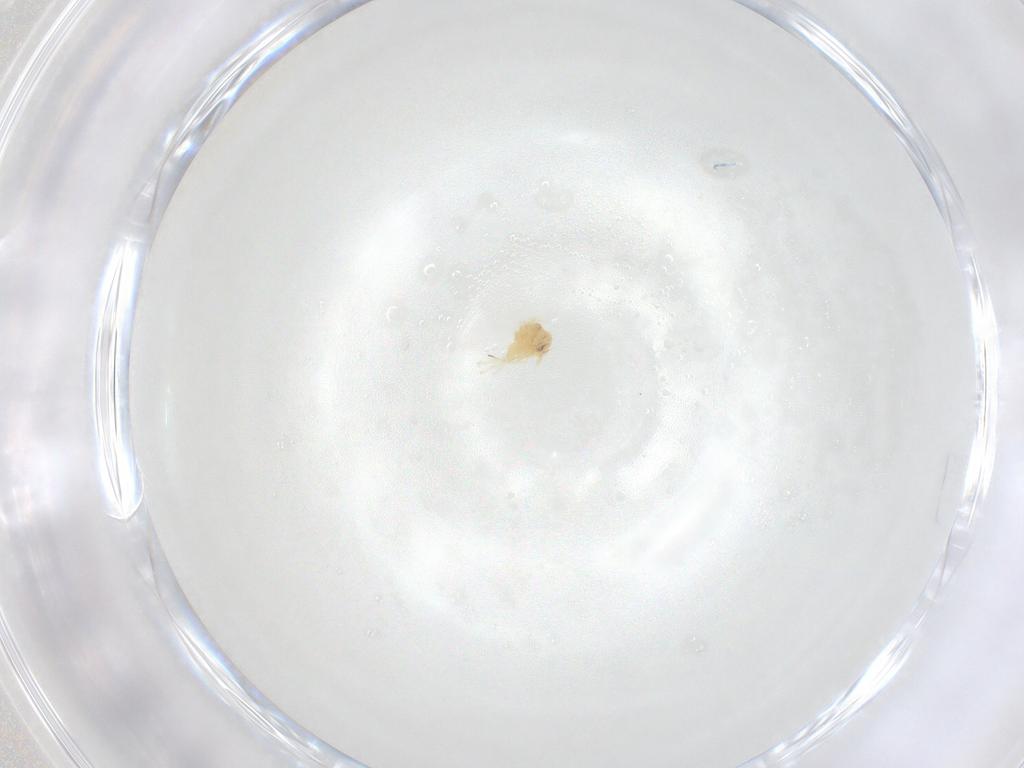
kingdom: Animalia
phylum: Arthropoda
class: Insecta
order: Hemiptera
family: Aleyrodidae
